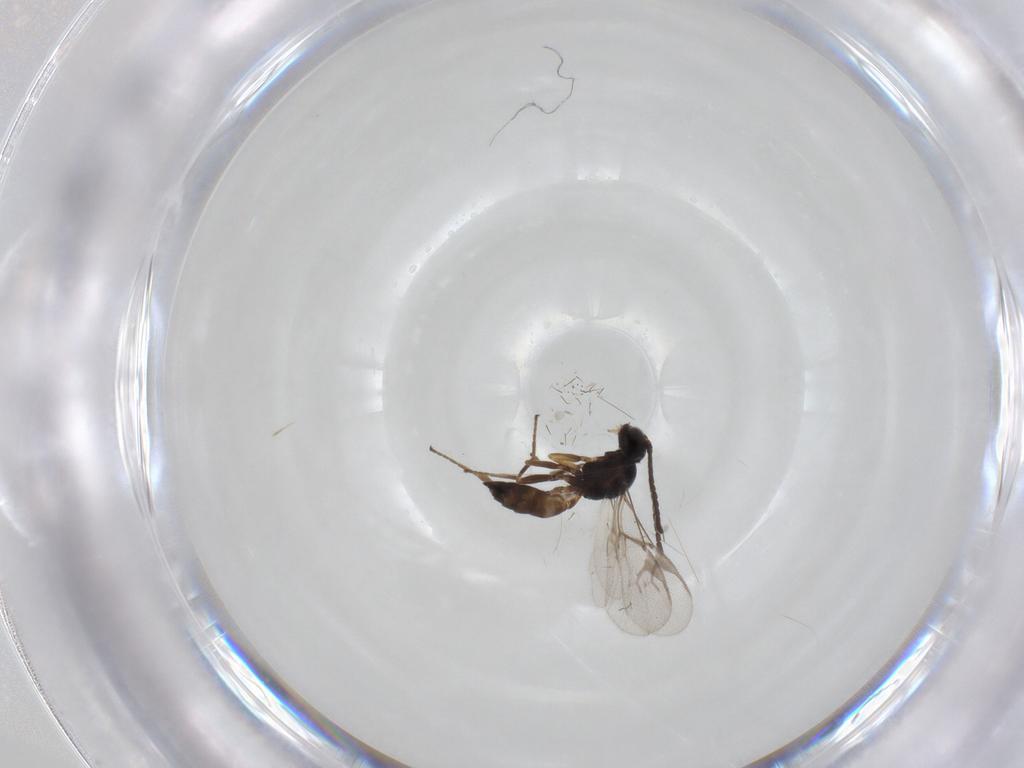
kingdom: Animalia
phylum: Arthropoda
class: Insecta
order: Hymenoptera
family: Braconidae
